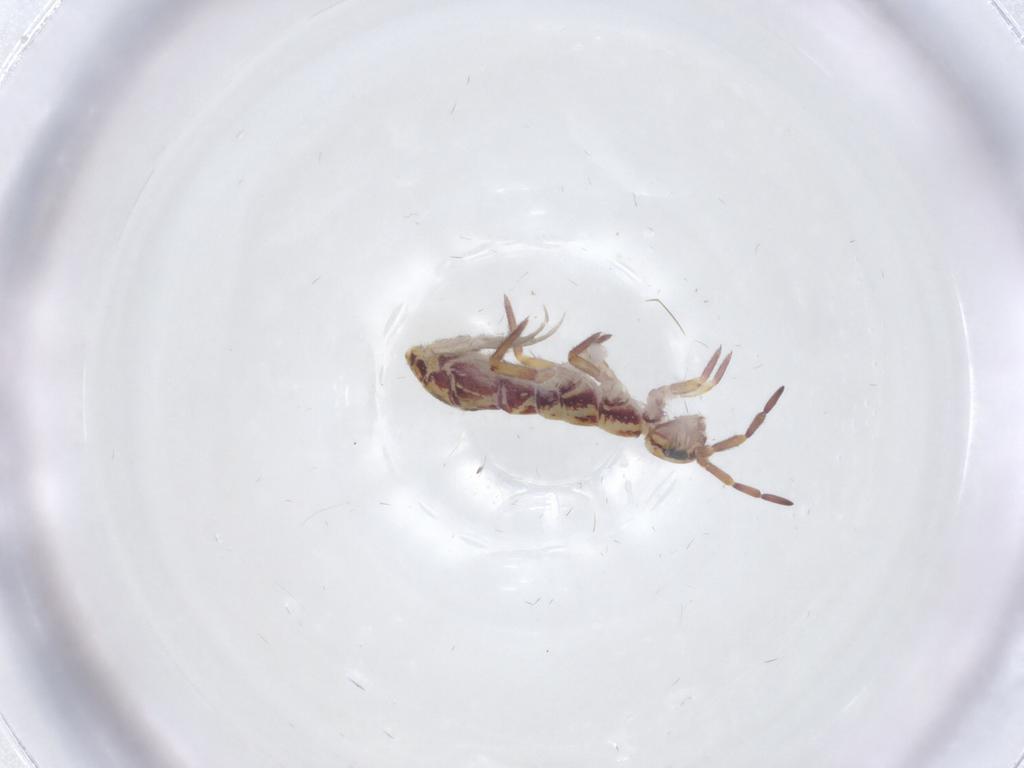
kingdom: Animalia
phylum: Arthropoda
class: Collembola
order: Entomobryomorpha
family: Isotomidae
